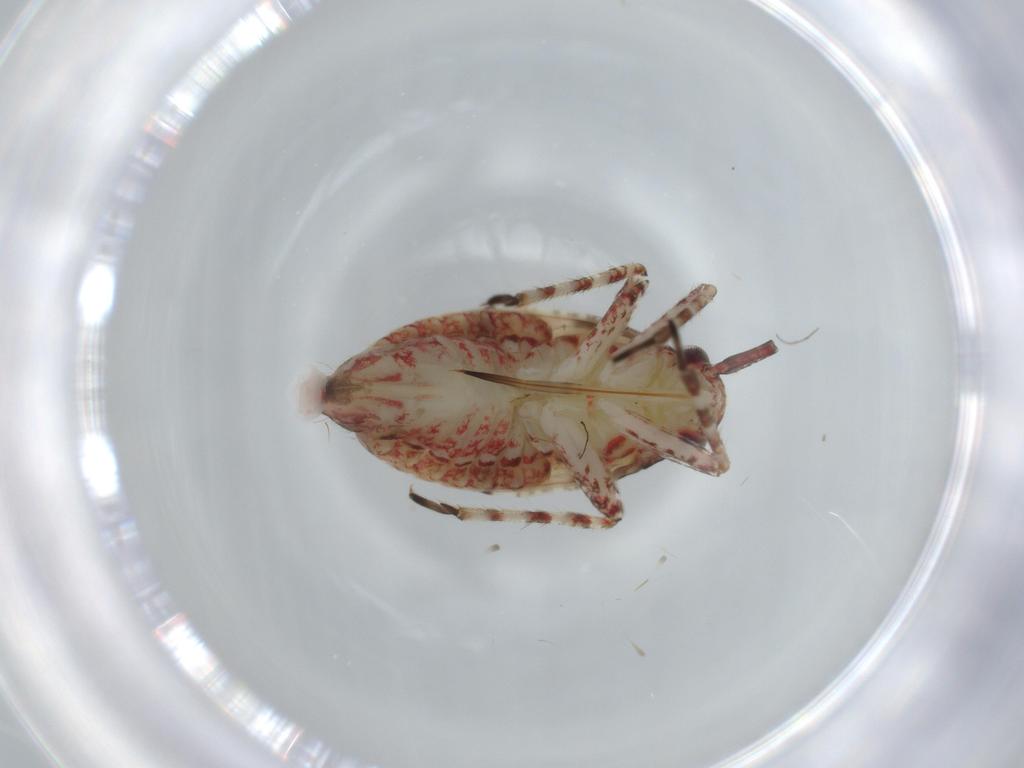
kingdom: Animalia
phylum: Arthropoda
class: Insecta
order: Hemiptera
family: Cicadellidae
